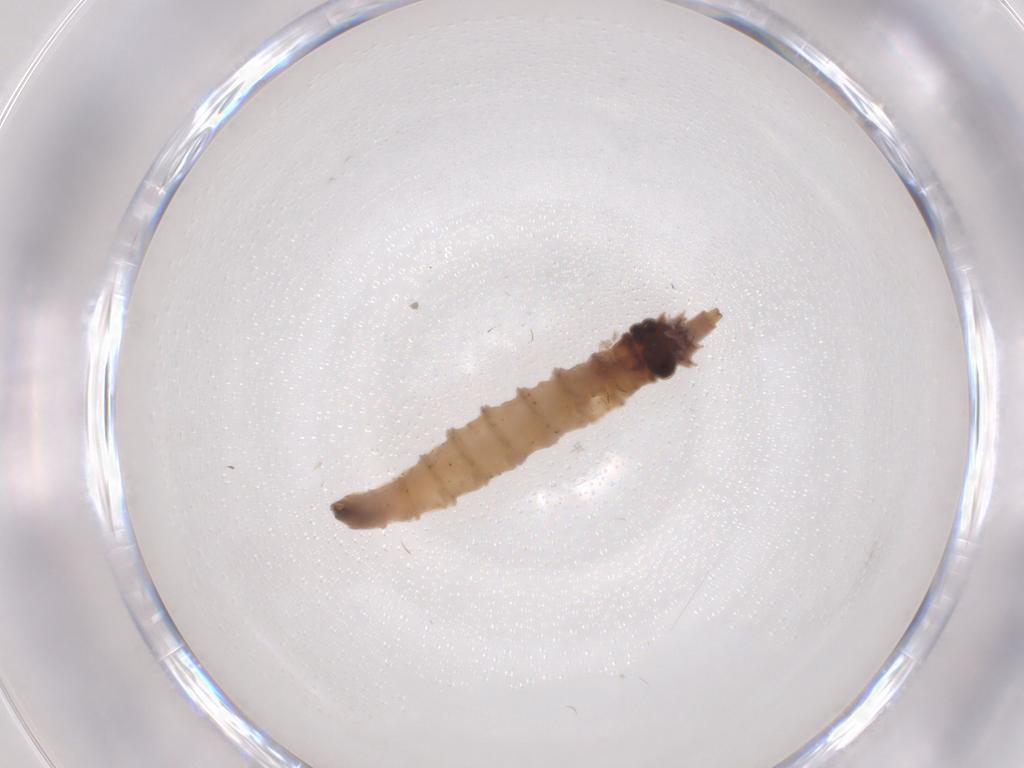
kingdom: Animalia
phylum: Arthropoda
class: Insecta
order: Diptera
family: Drosophilidae
